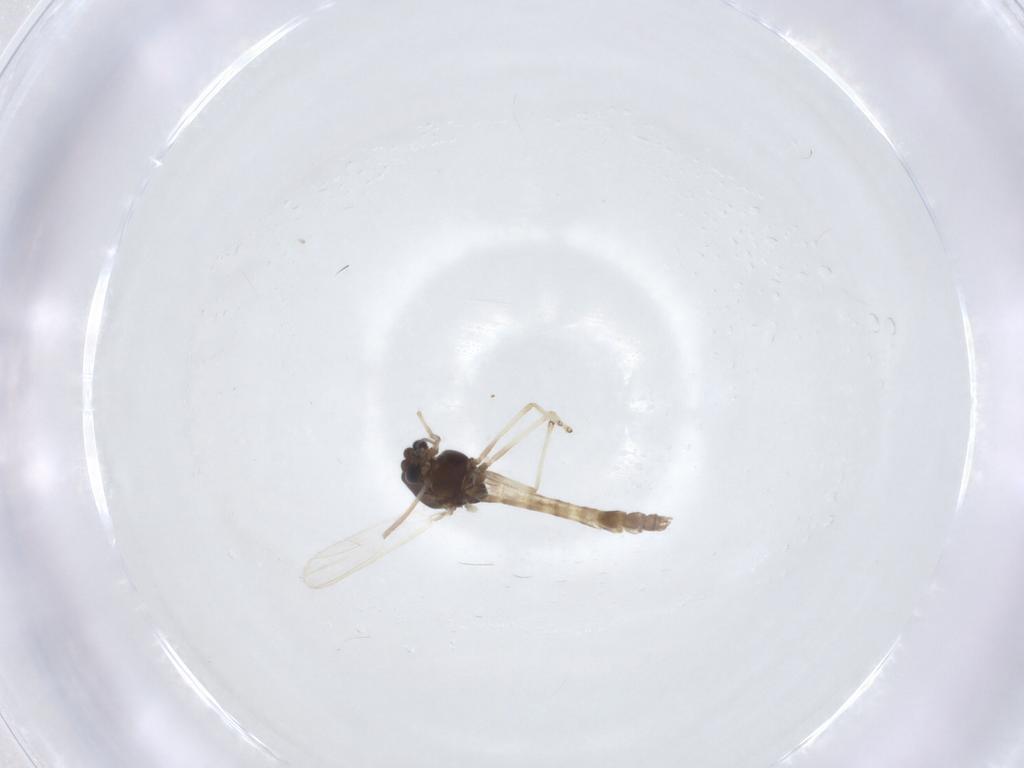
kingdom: Animalia
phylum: Arthropoda
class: Insecta
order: Diptera
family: Chironomidae
